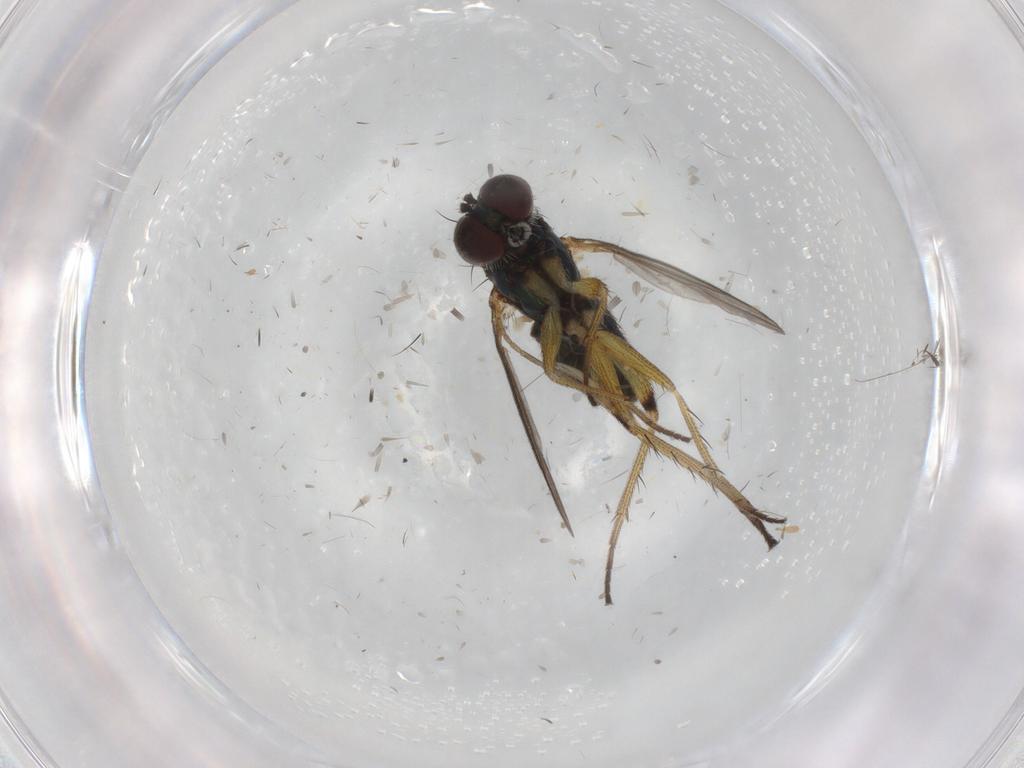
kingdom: Animalia
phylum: Arthropoda
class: Insecta
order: Diptera
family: Psychodidae
